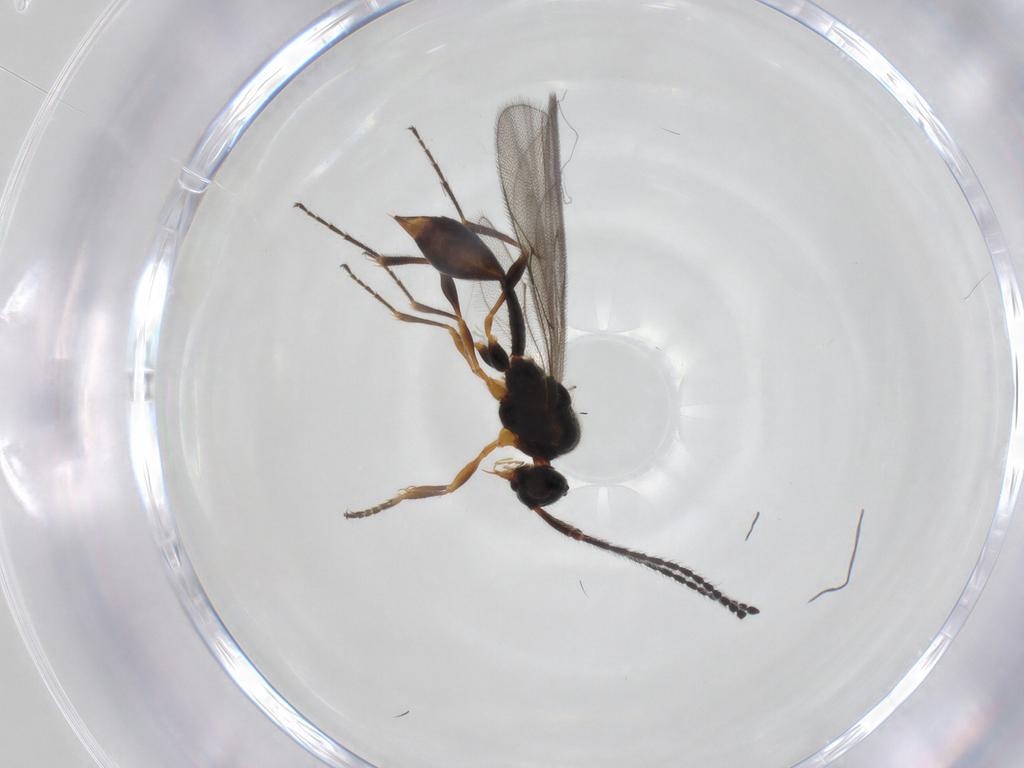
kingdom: Animalia
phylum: Arthropoda
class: Insecta
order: Hymenoptera
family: Diapriidae
